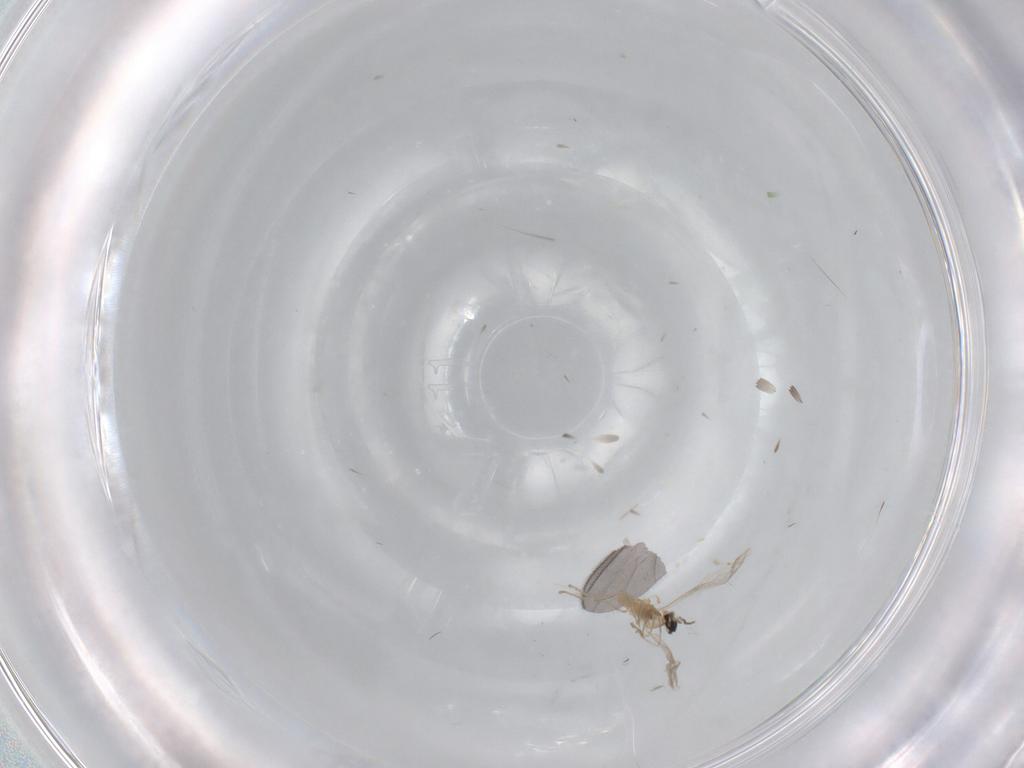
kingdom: Animalia
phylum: Arthropoda
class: Insecta
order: Diptera
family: Cecidomyiidae
